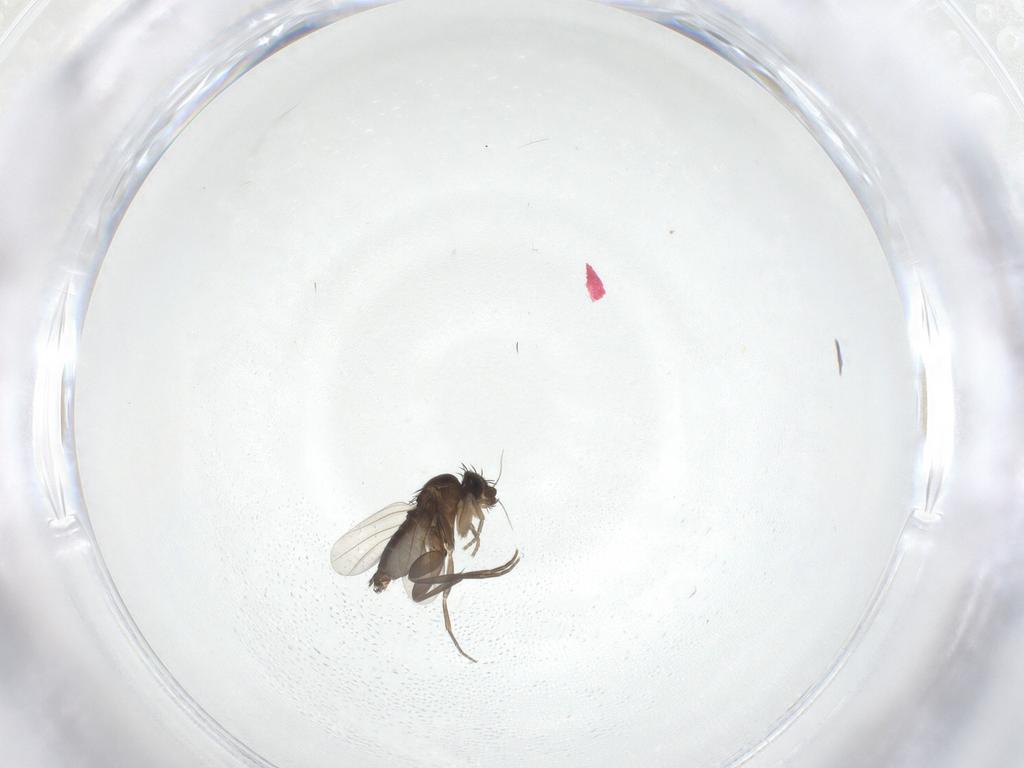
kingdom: Animalia
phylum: Arthropoda
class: Insecta
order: Diptera
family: Phoridae
